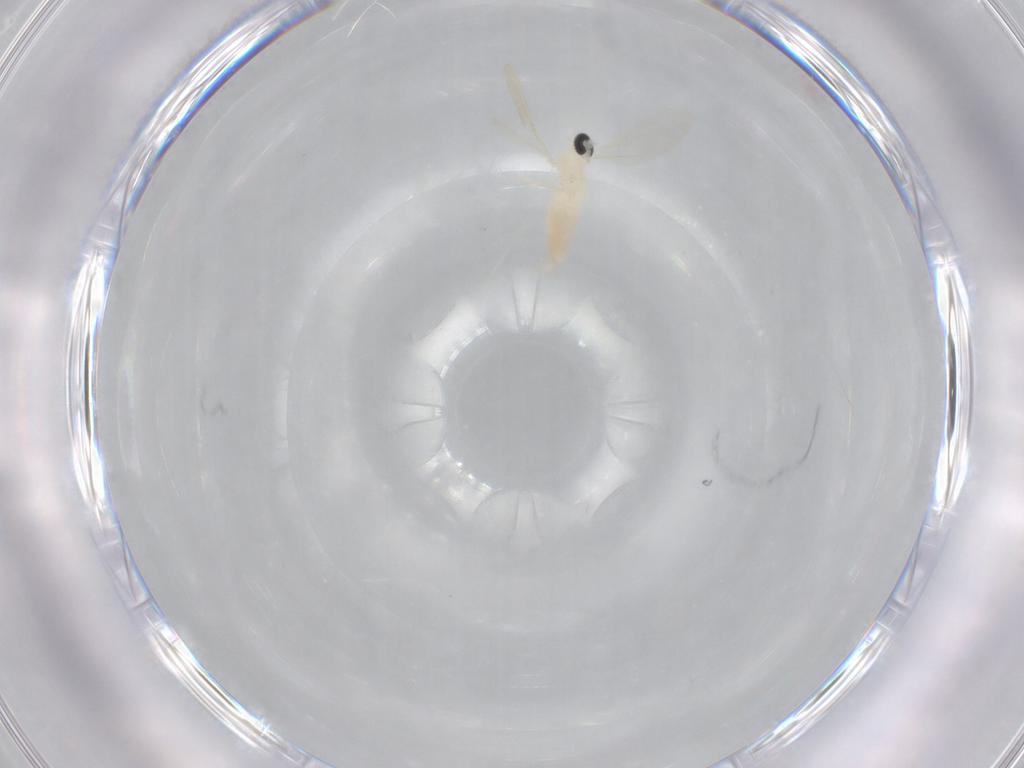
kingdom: Animalia
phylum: Arthropoda
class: Insecta
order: Diptera
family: Cecidomyiidae
